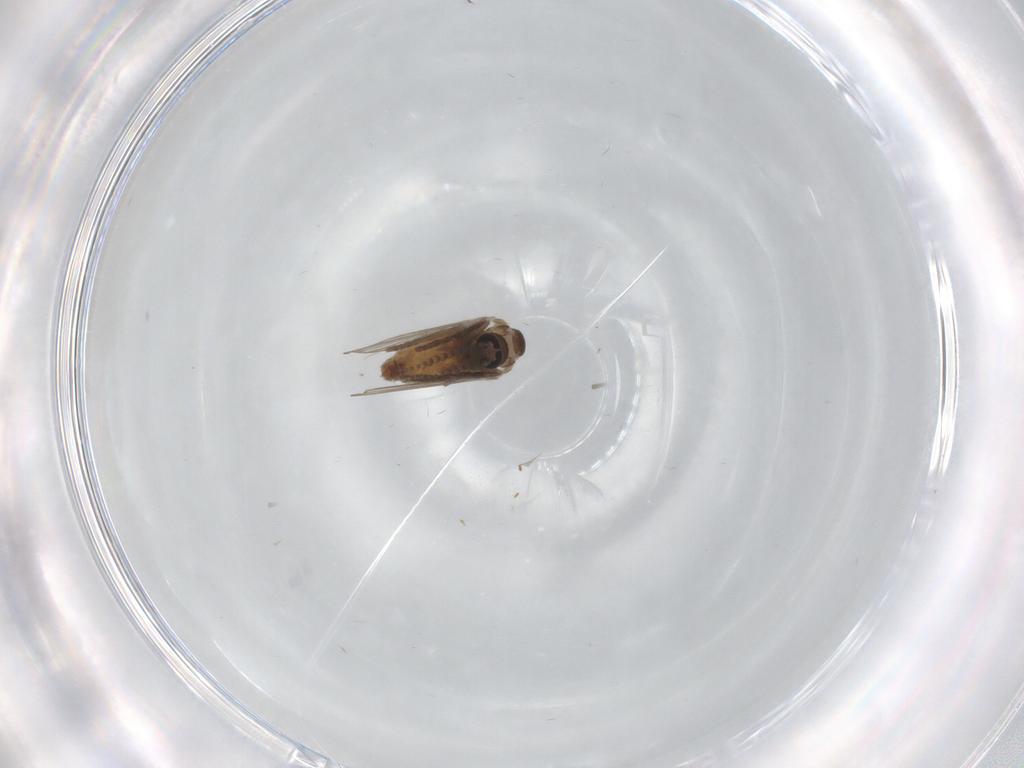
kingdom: Animalia
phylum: Arthropoda
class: Insecta
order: Diptera
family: Psychodidae
